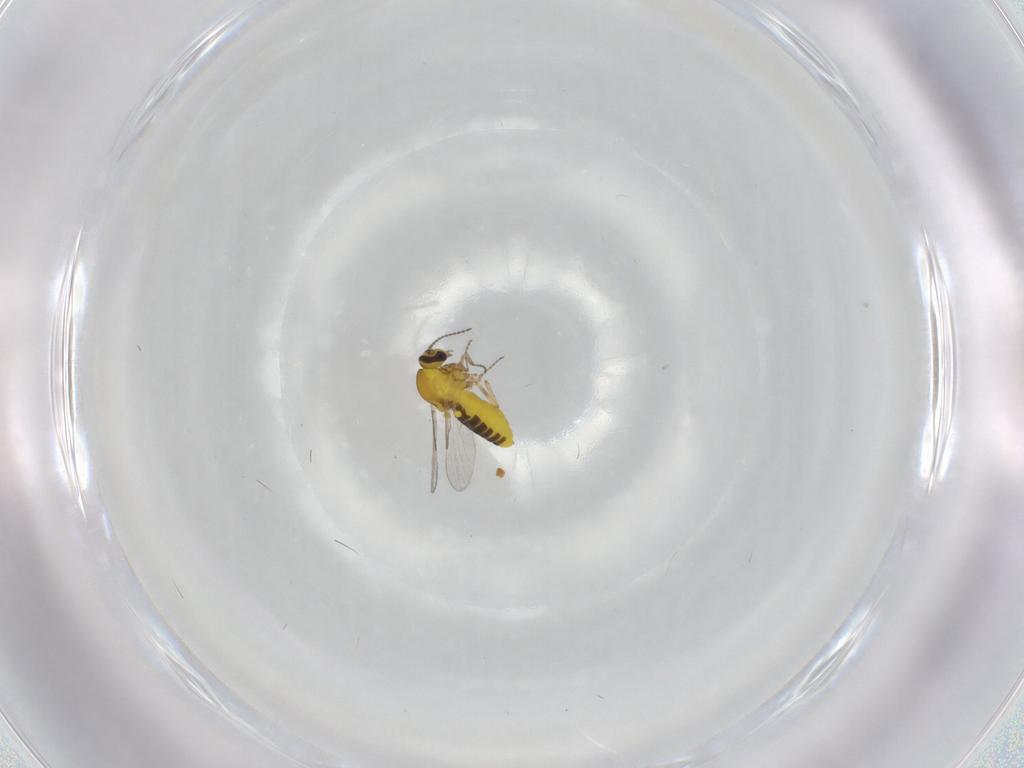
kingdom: Animalia
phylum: Arthropoda
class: Insecta
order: Diptera
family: Ceratopogonidae
